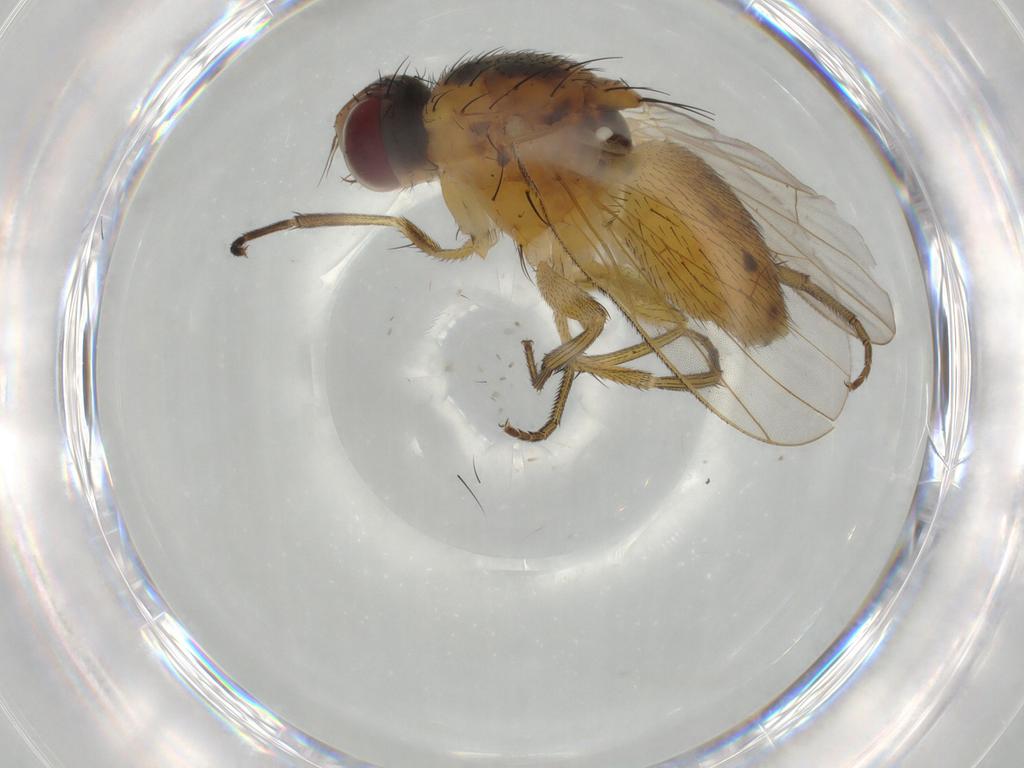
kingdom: Animalia
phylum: Arthropoda
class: Insecta
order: Diptera
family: Muscidae
